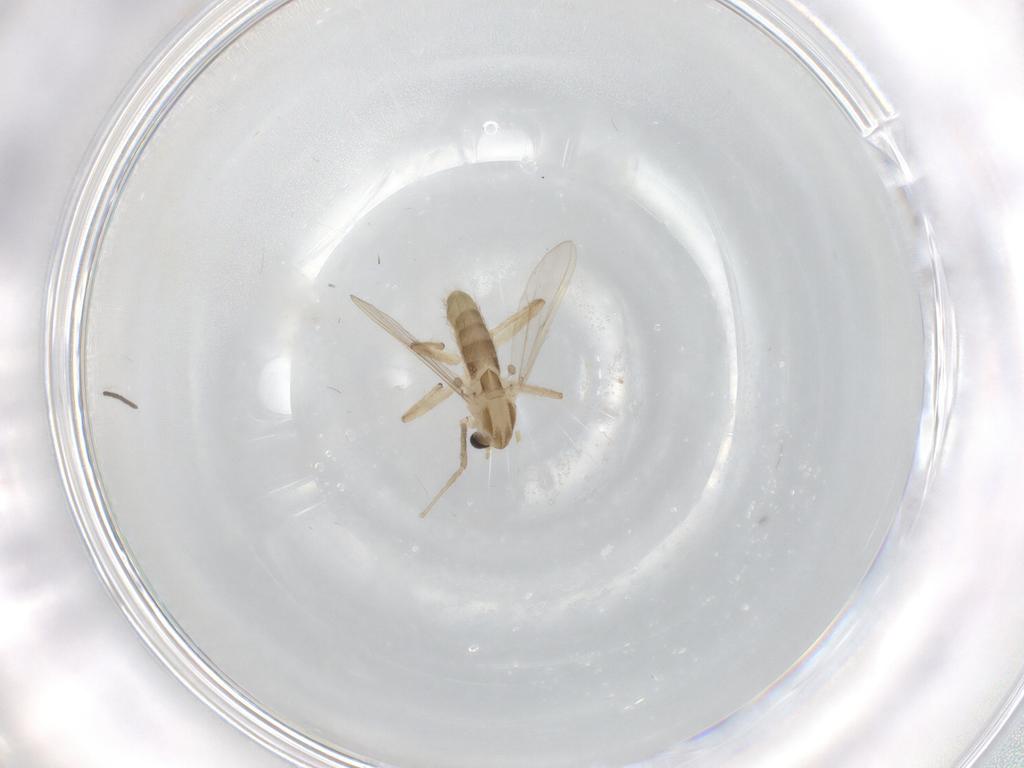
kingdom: Animalia
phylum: Arthropoda
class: Insecta
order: Diptera
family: Chironomidae
